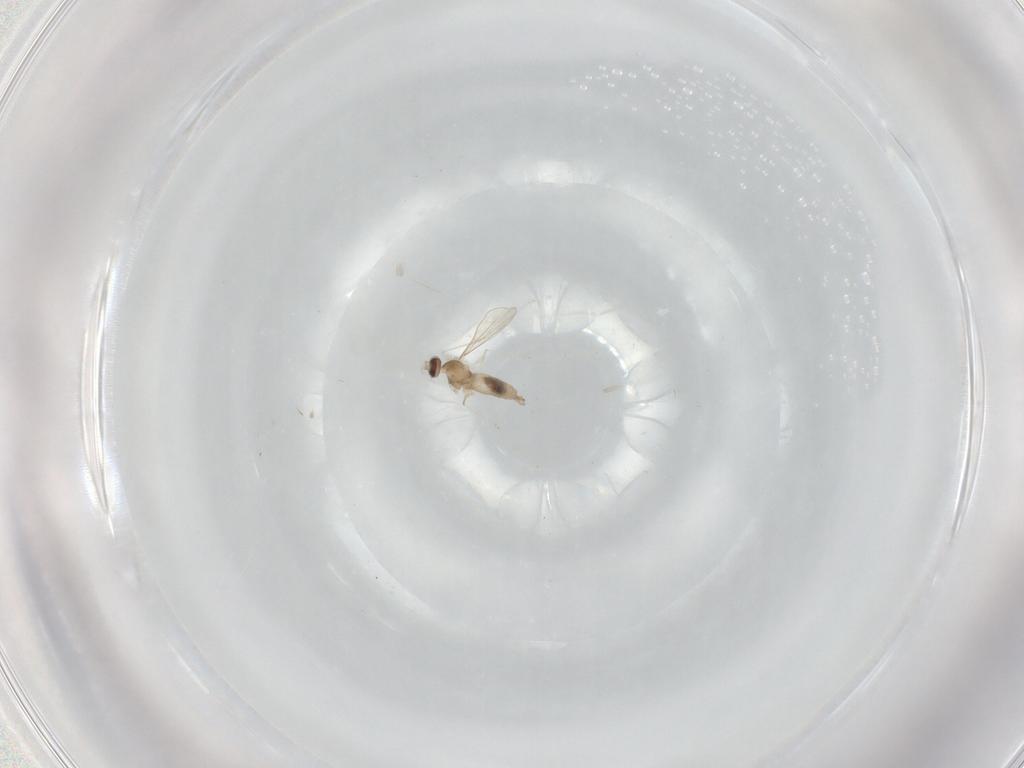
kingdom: Animalia
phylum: Arthropoda
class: Insecta
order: Diptera
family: Cecidomyiidae
